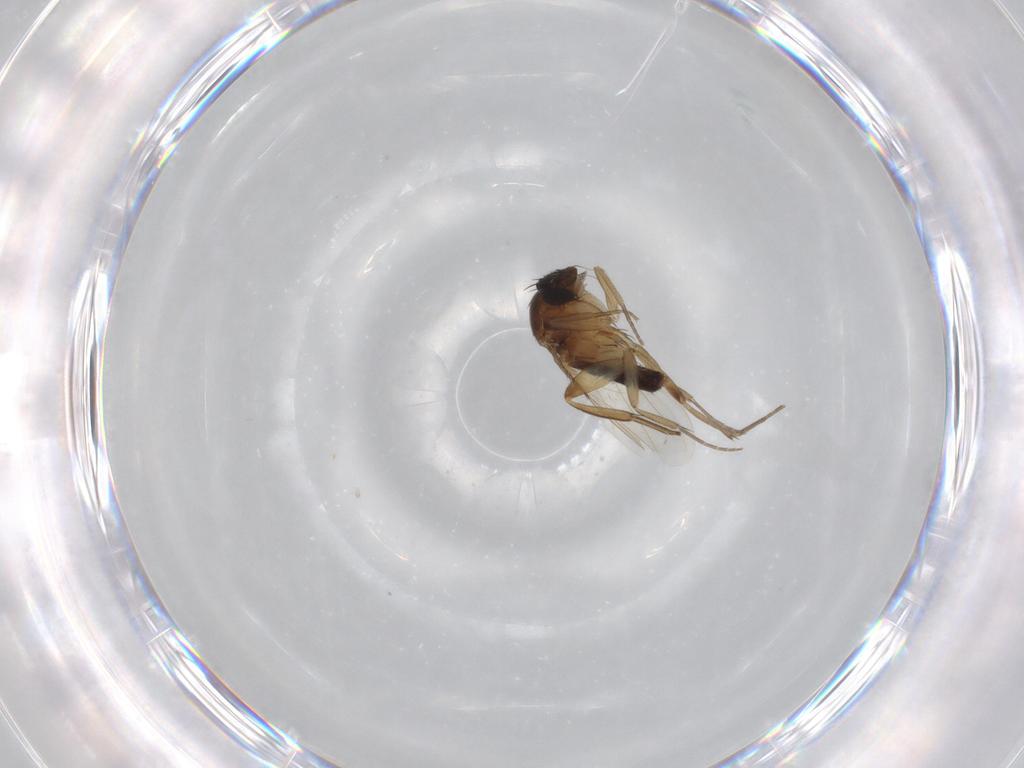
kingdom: Animalia
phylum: Arthropoda
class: Insecta
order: Diptera
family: Phoridae
